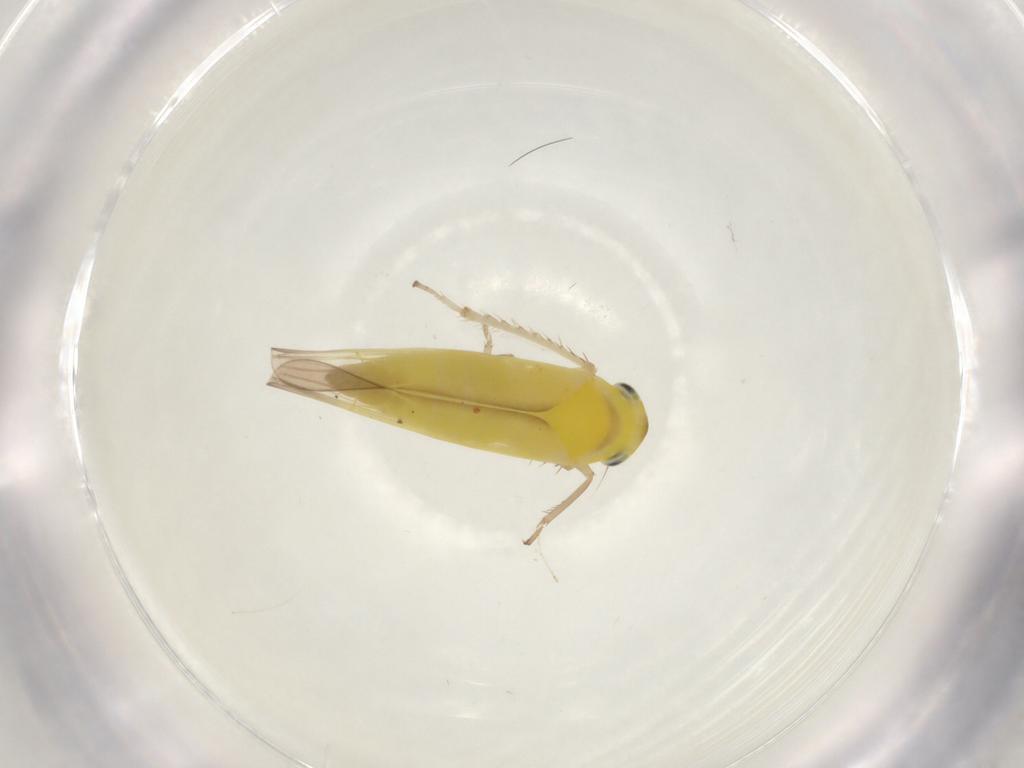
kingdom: Animalia
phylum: Arthropoda
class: Insecta
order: Hemiptera
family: Cicadellidae
